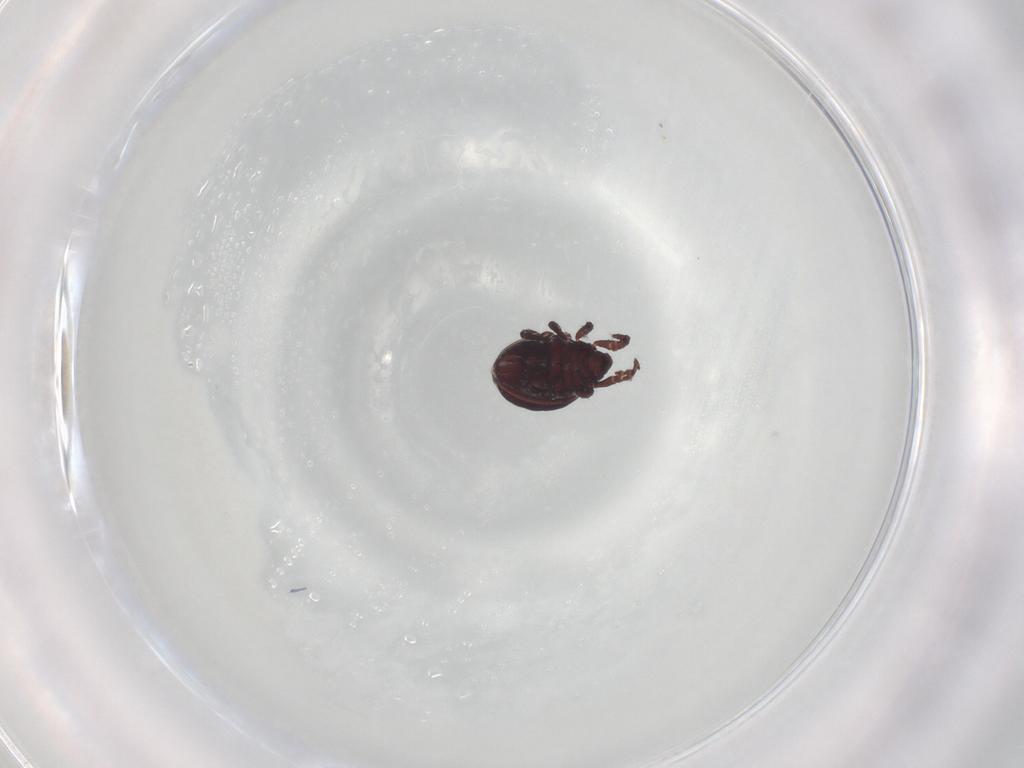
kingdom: Animalia
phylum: Arthropoda
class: Arachnida
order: Sarcoptiformes
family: Hermanniidae
